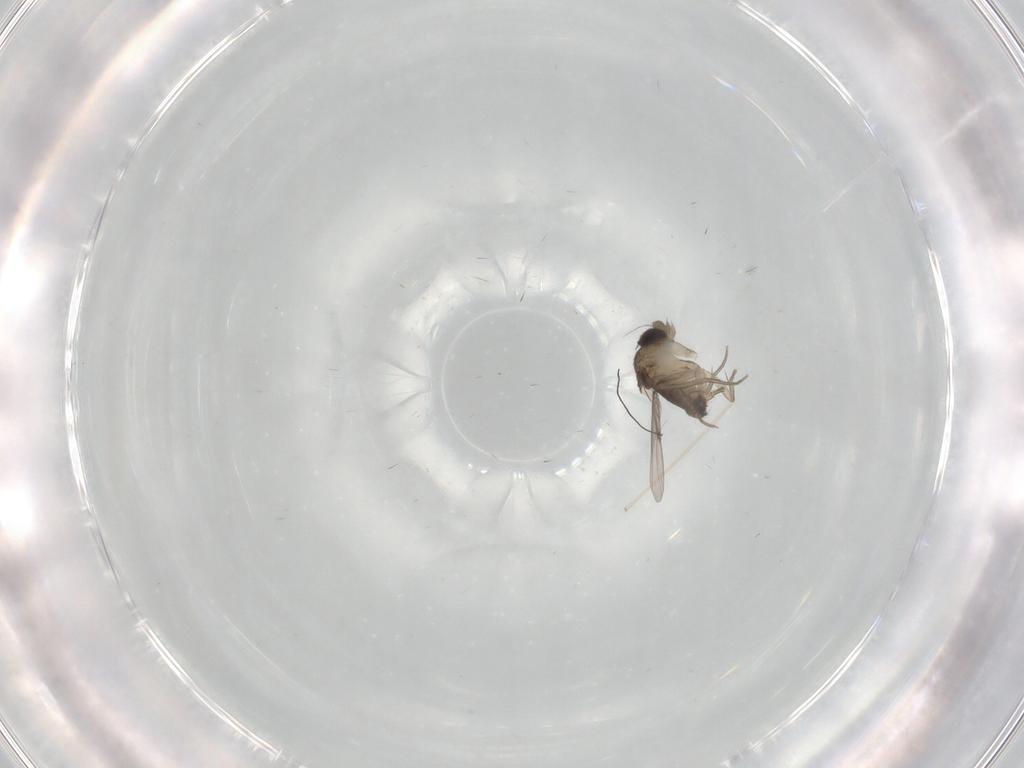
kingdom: Animalia
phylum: Arthropoda
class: Insecta
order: Diptera
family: Phoridae
